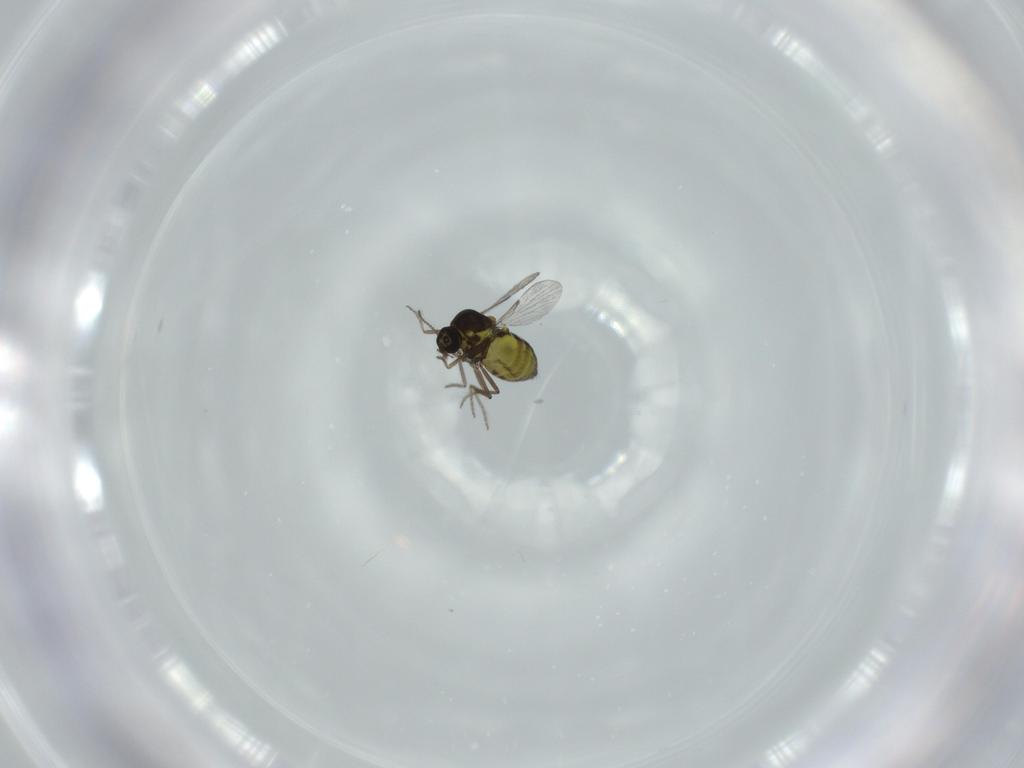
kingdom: Animalia
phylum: Arthropoda
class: Insecta
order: Diptera
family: Ceratopogonidae
